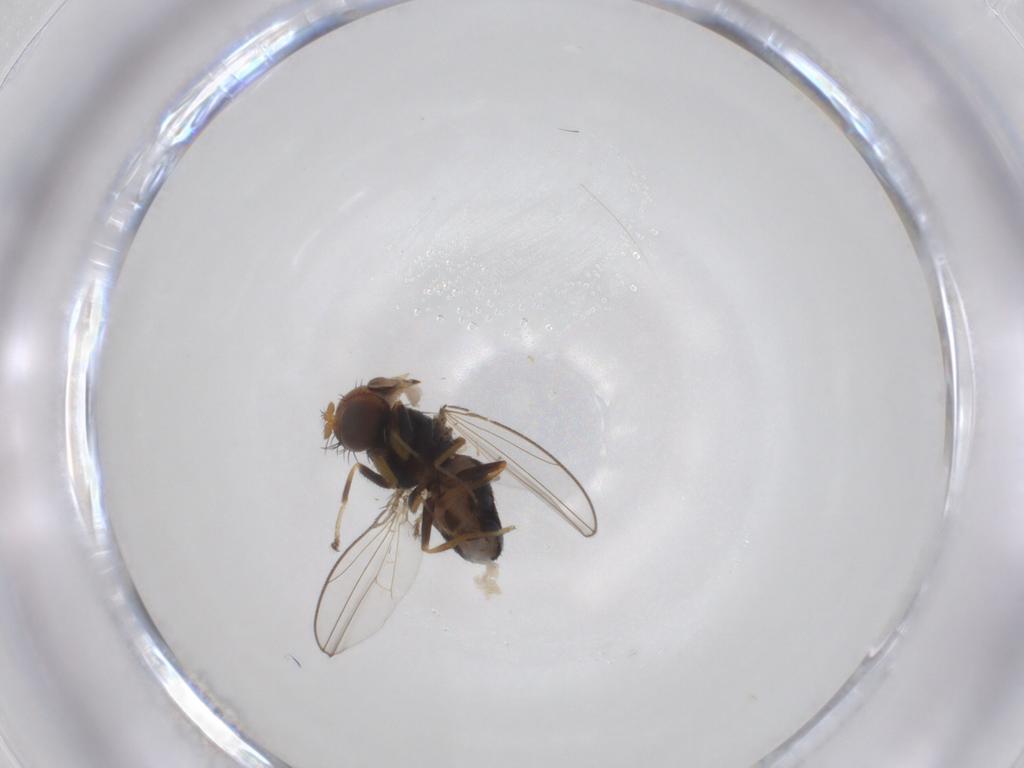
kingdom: Animalia
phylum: Arthropoda
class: Insecta
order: Diptera
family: Ephydridae
